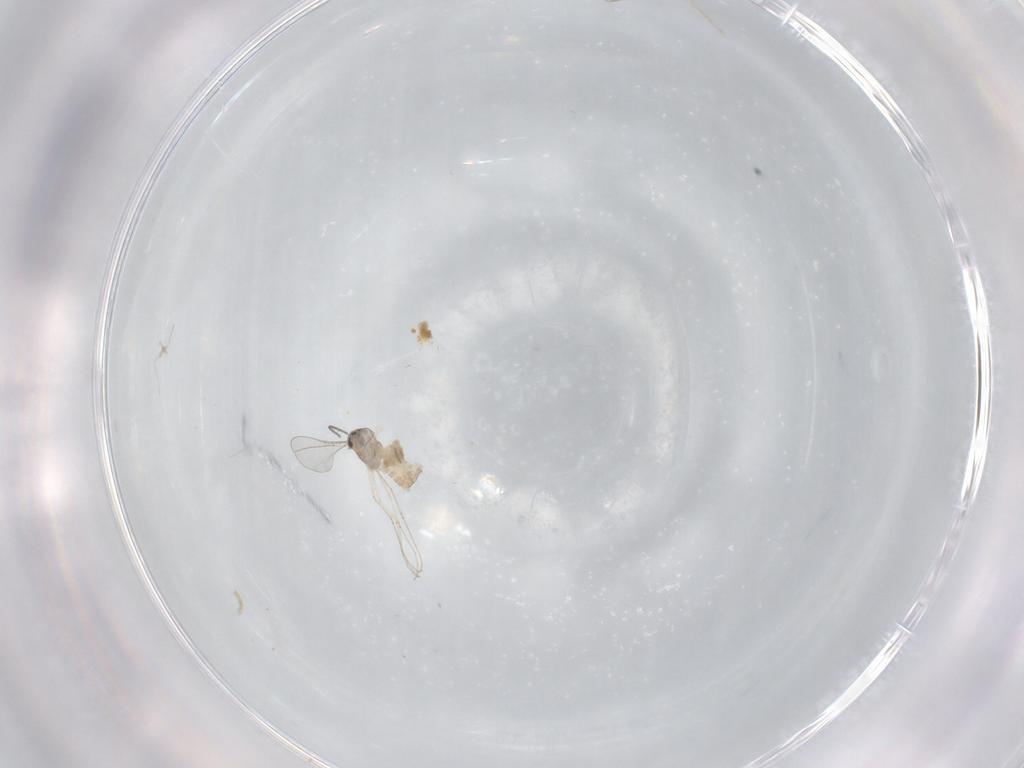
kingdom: Animalia
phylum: Arthropoda
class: Insecta
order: Diptera
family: Cecidomyiidae
